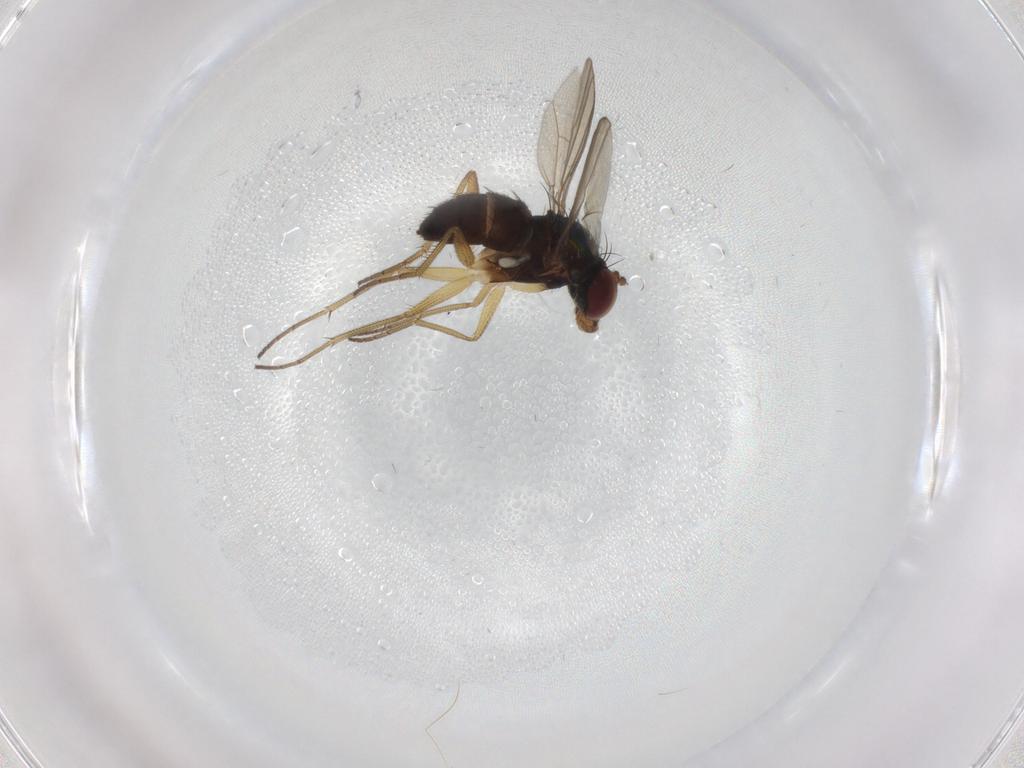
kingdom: Animalia
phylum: Arthropoda
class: Insecta
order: Diptera
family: Dolichopodidae
